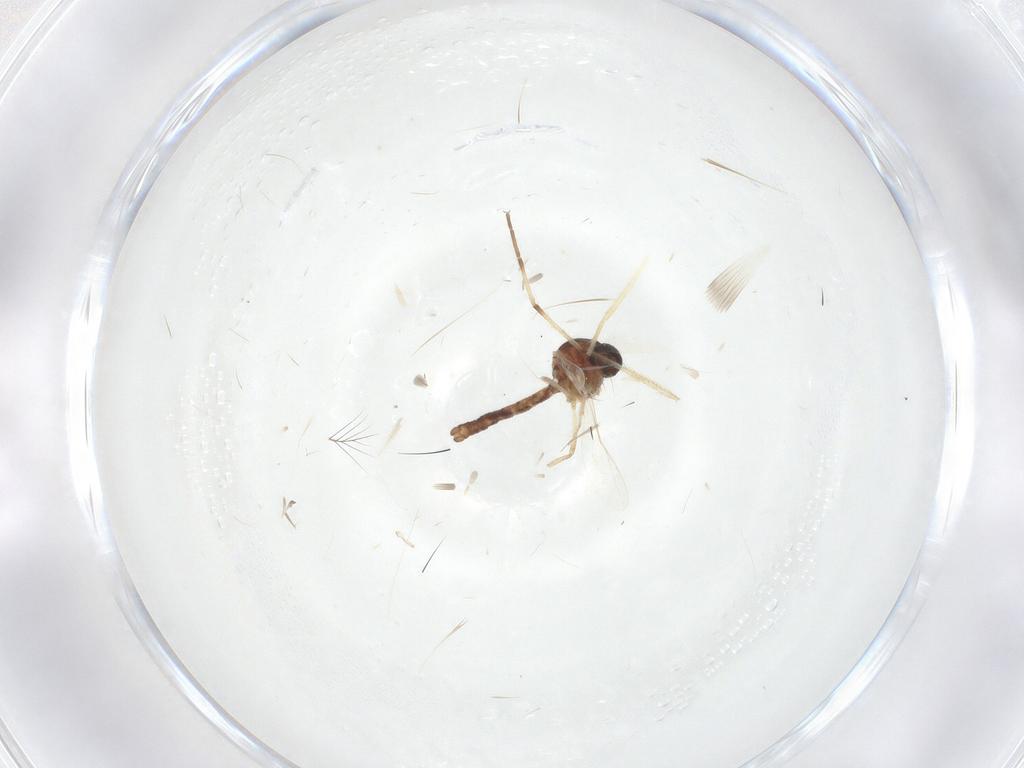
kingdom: Animalia
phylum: Arthropoda
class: Insecta
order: Diptera
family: Ceratopogonidae
